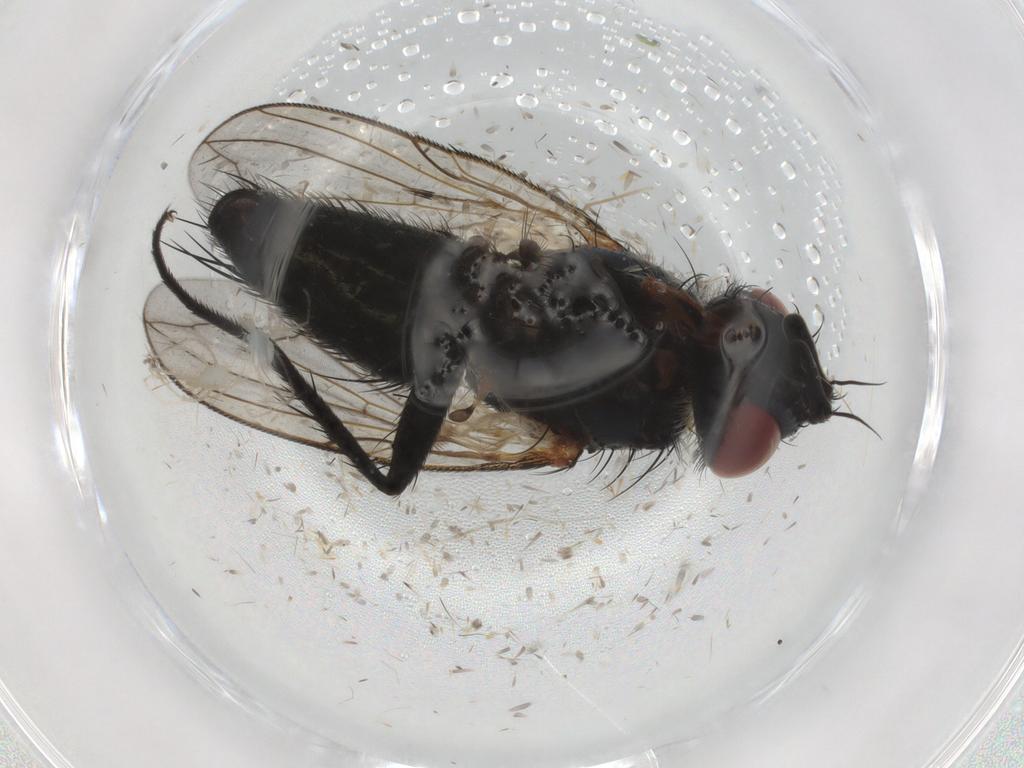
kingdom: Animalia
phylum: Arthropoda
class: Insecta
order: Diptera
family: Tachinidae
